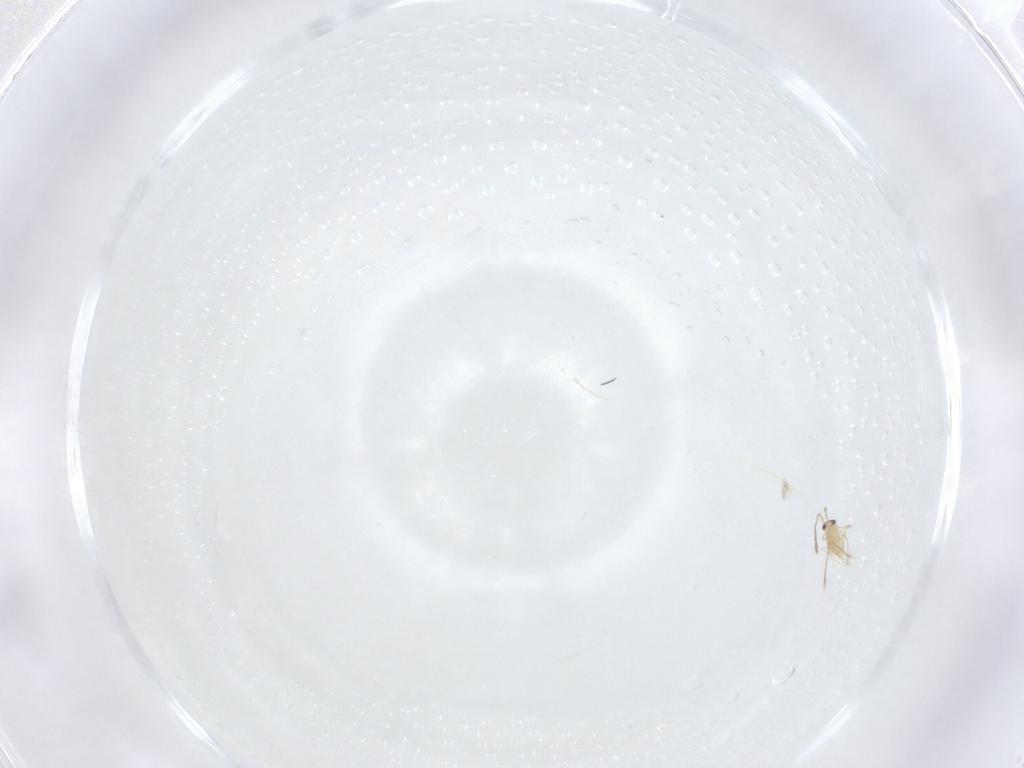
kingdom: Animalia
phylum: Arthropoda
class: Insecta
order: Hymenoptera
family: Mymaridae
